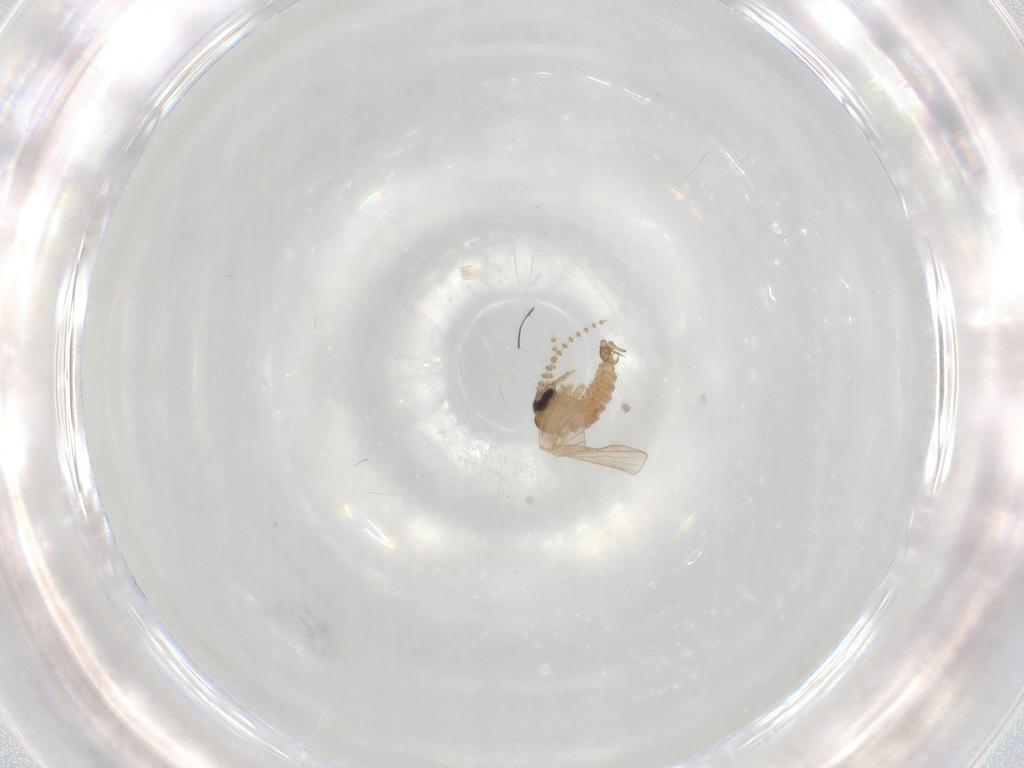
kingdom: Animalia
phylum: Arthropoda
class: Insecta
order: Diptera
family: Psychodidae
